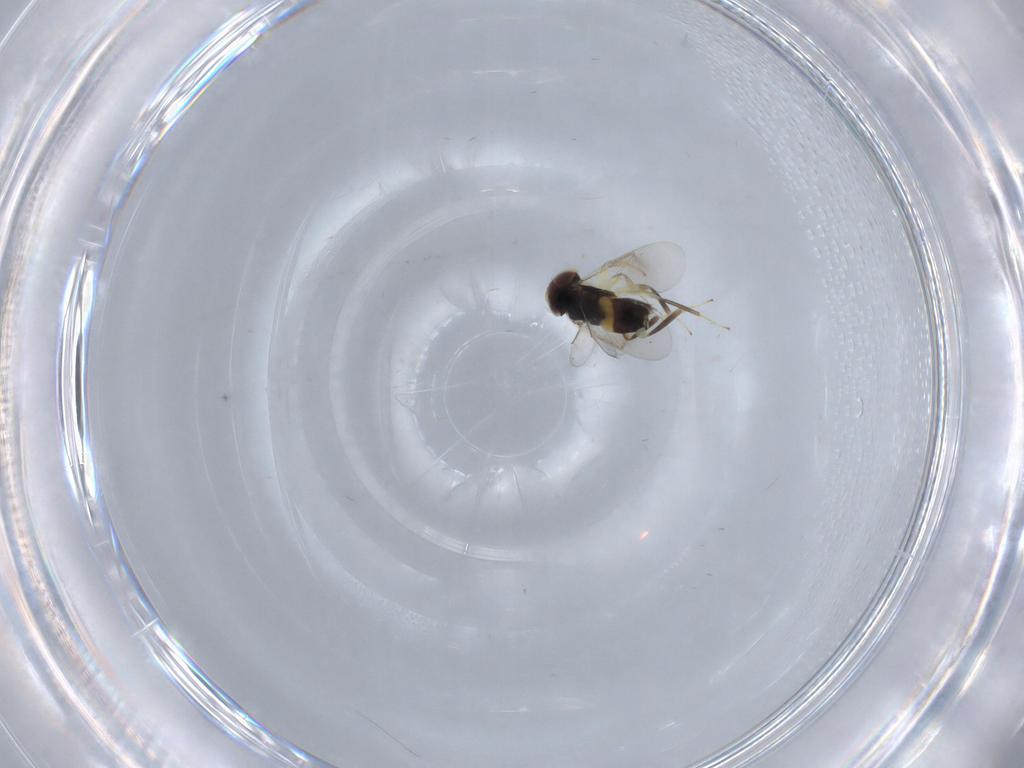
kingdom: Animalia
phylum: Arthropoda
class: Insecta
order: Hymenoptera
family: Aphelinidae
